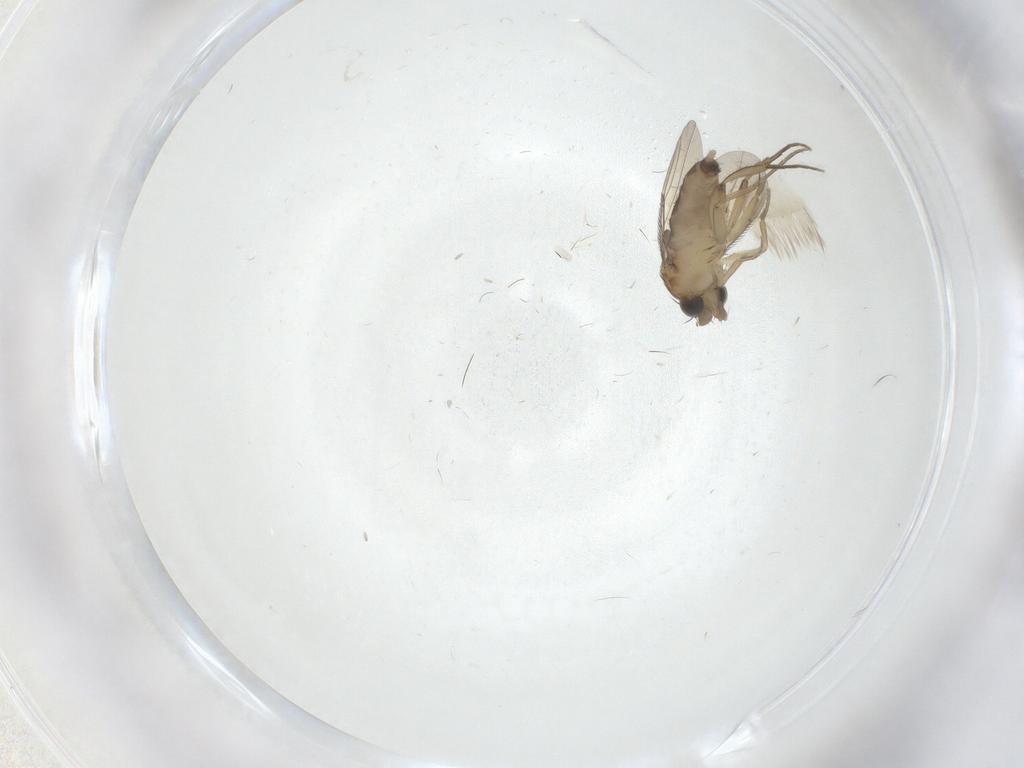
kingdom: Animalia
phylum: Arthropoda
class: Insecta
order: Diptera
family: Phoridae
